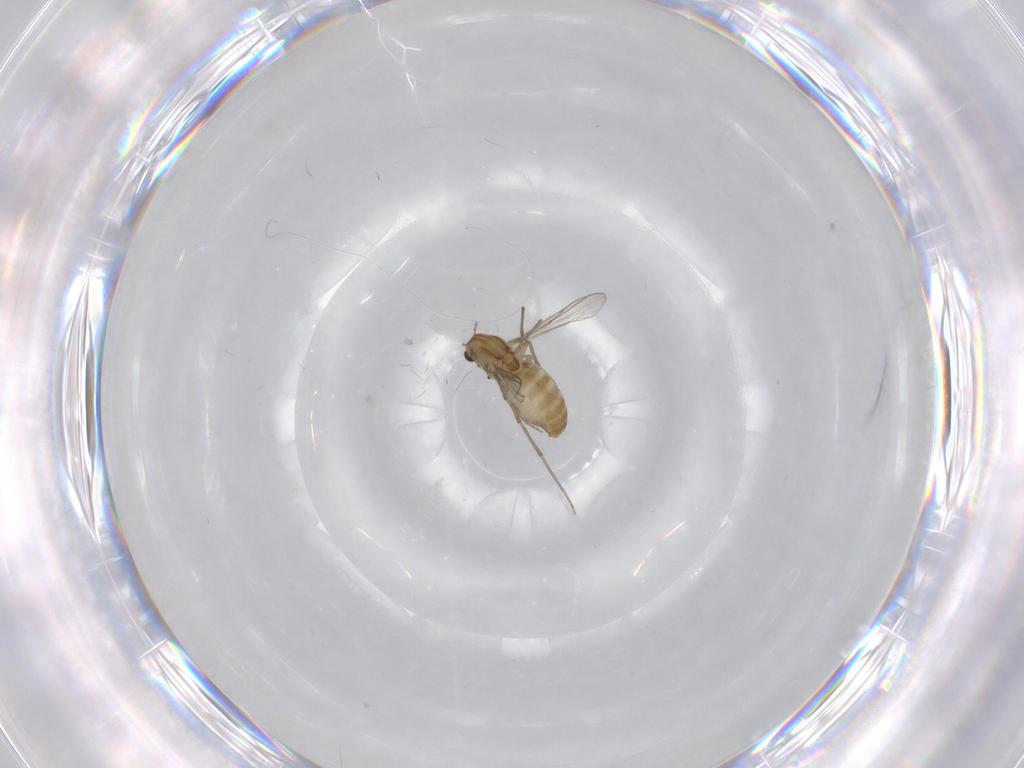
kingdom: Animalia
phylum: Arthropoda
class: Insecta
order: Diptera
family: Chironomidae
